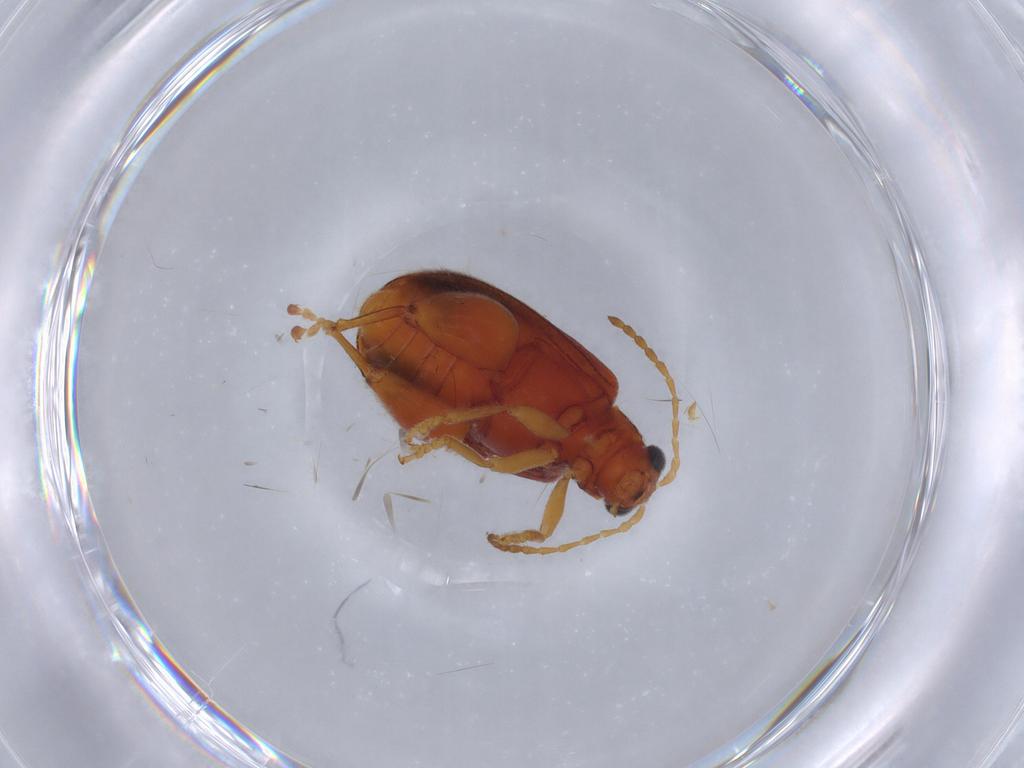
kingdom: Animalia
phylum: Arthropoda
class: Insecta
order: Coleoptera
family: Chrysomelidae
